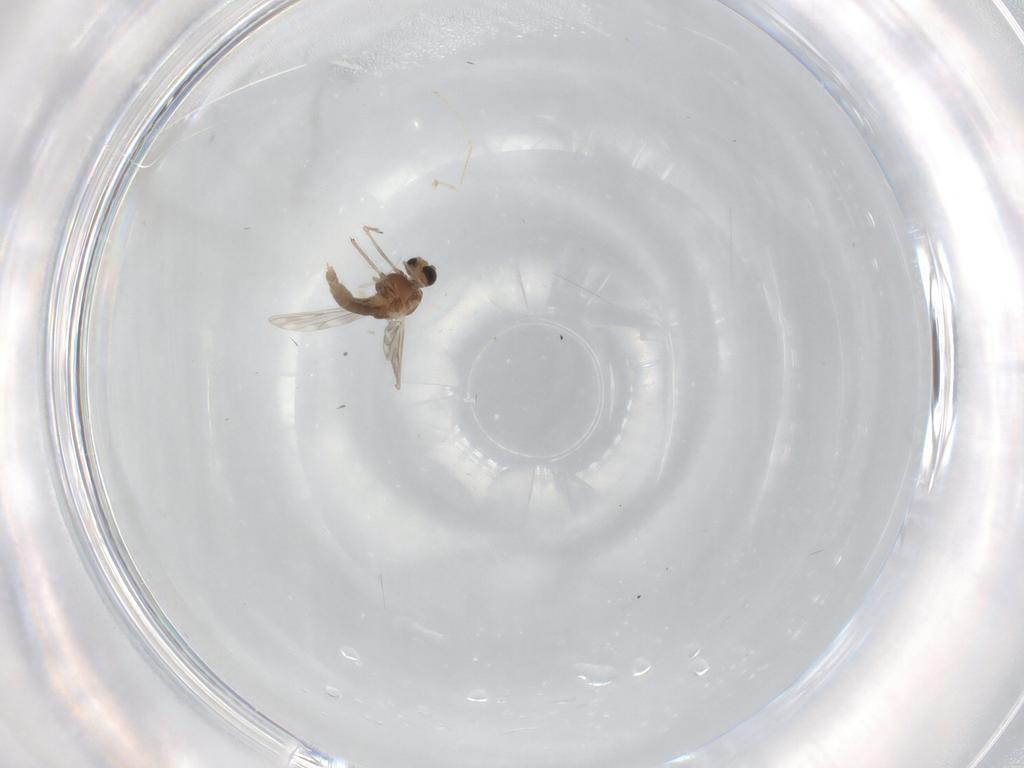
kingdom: Animalia
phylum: Arthropoda
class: Insecta
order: Diptera
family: Chironomidae
